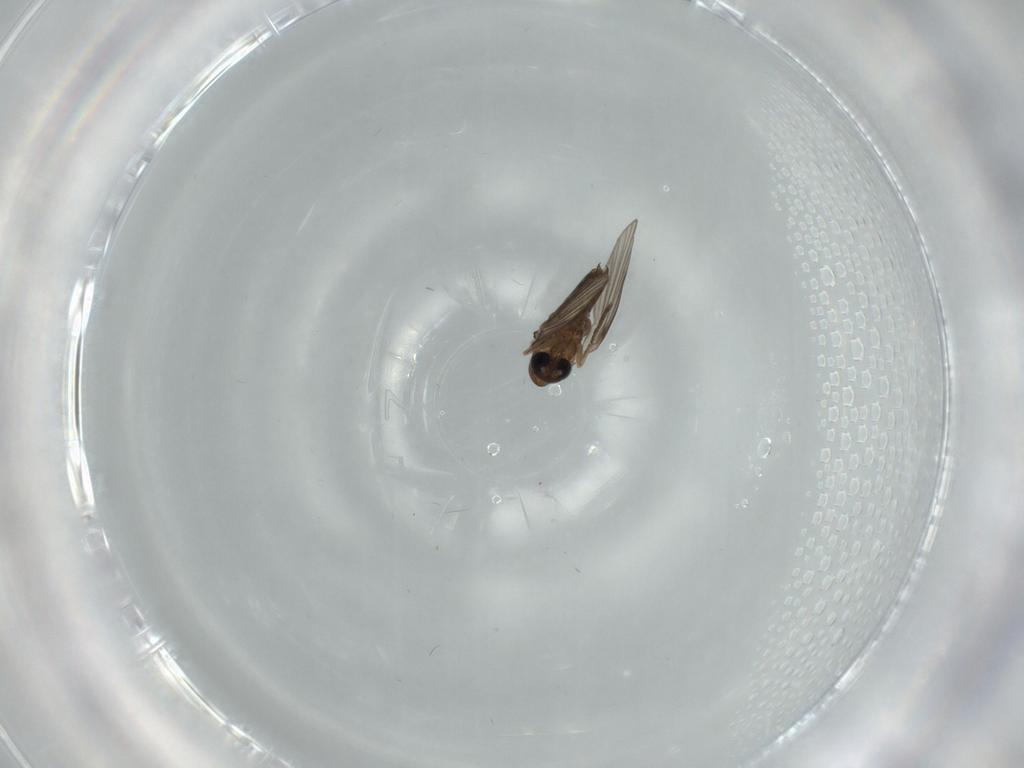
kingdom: Animalia
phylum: Arthropoda
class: Insecta
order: Diptera
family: Psychodidae
